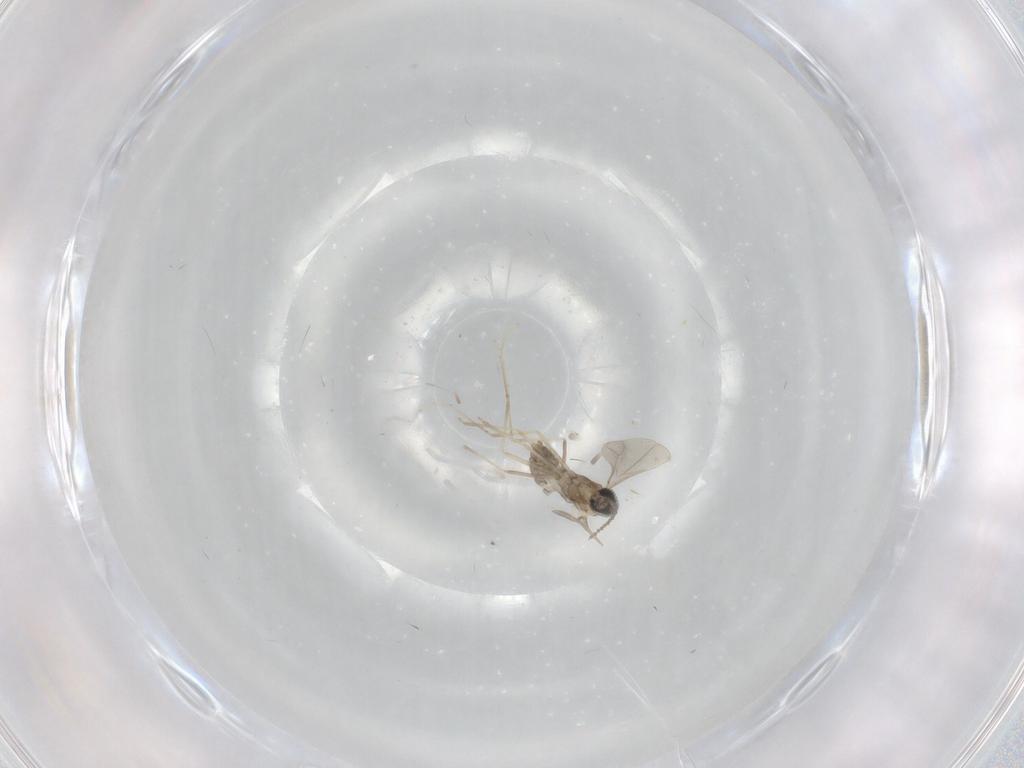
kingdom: Animalia
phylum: Arthropoda
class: Insecta
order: Diptera
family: Cecidomyiidae
